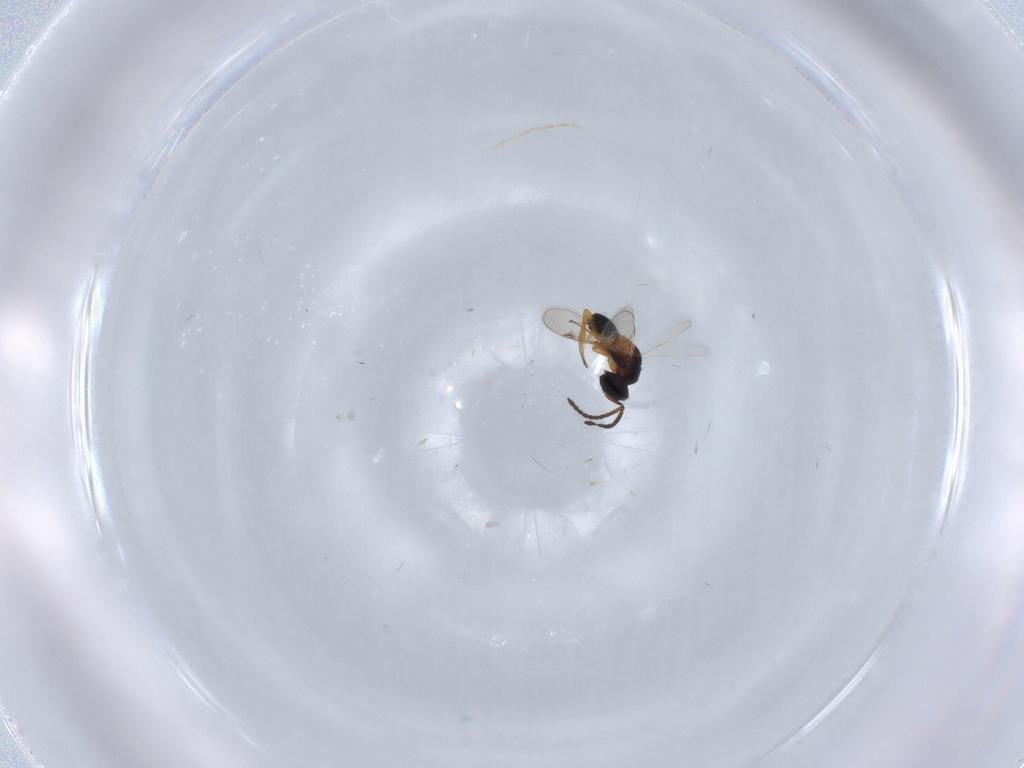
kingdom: Animalia
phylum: Arthropoda
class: Insecta
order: Hymenoptera
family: Diparidae
